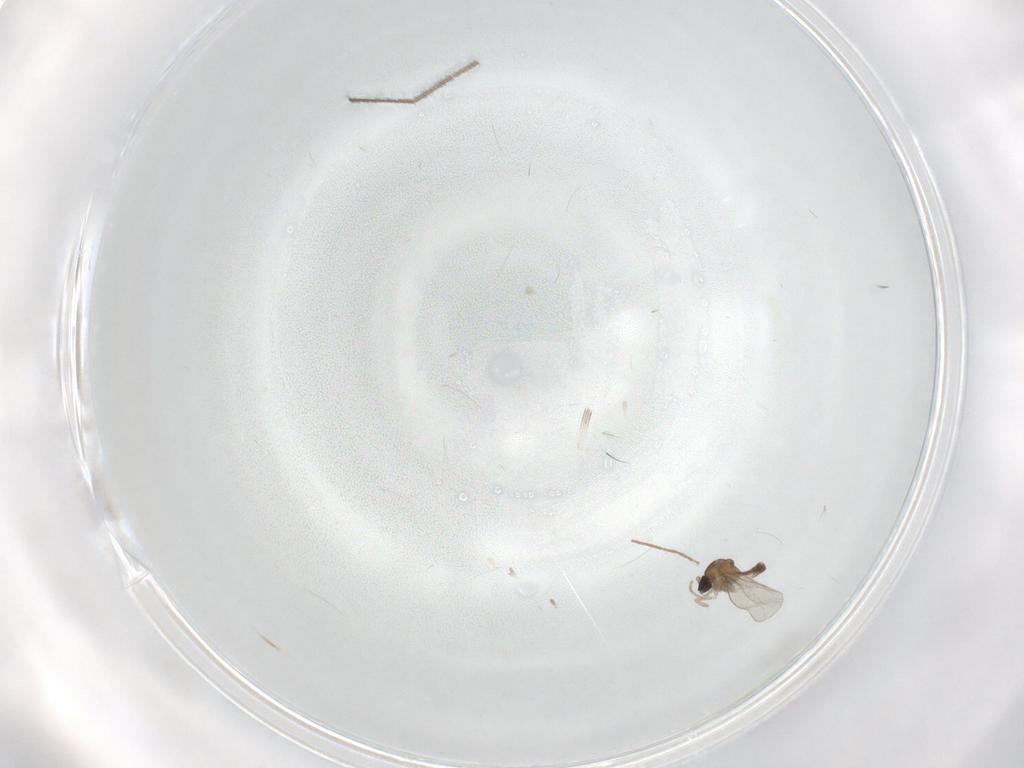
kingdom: Animalia
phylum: Arthropoda
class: Insecta
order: Diptera
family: Cecidomyiidae
